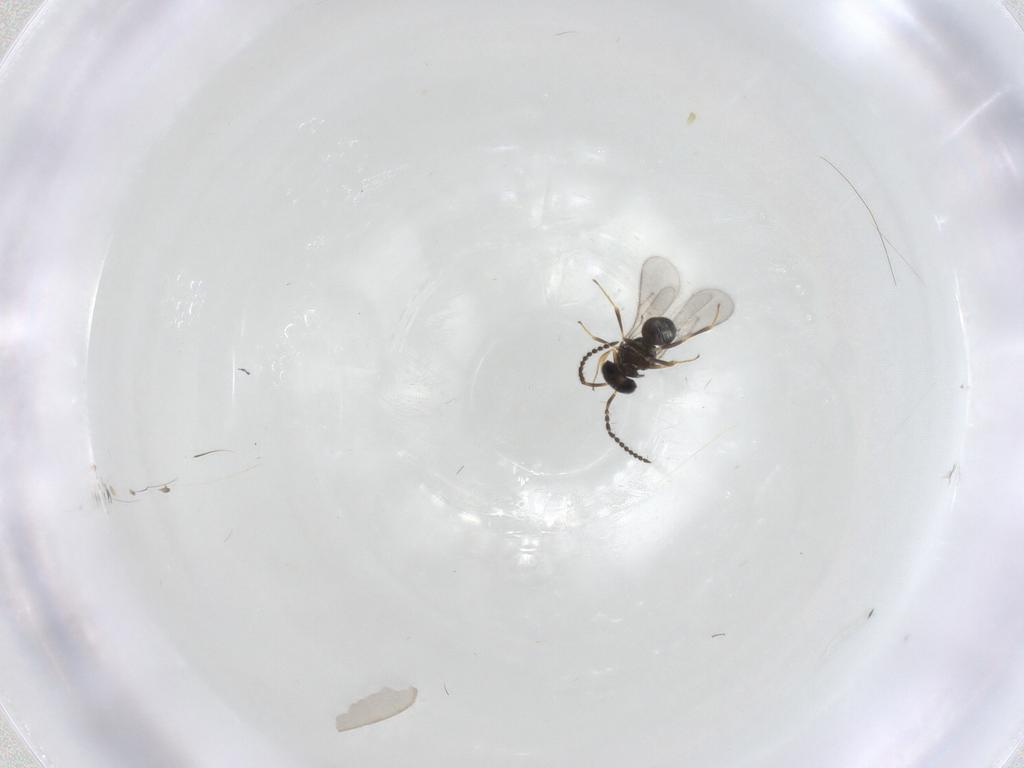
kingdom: Animalia
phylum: Arthropoda
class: Insecta
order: Hymenoptera
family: Scelionidae
